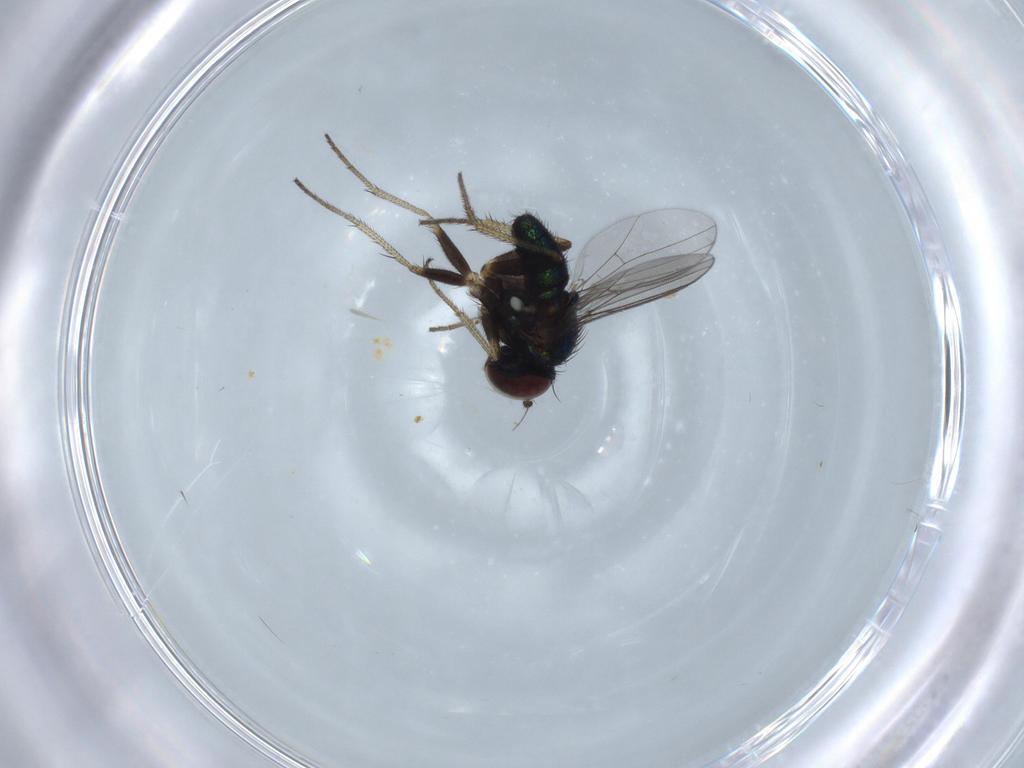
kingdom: Animalia
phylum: Arthropoda
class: Insecta
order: Diptera
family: Dolichopodidae
